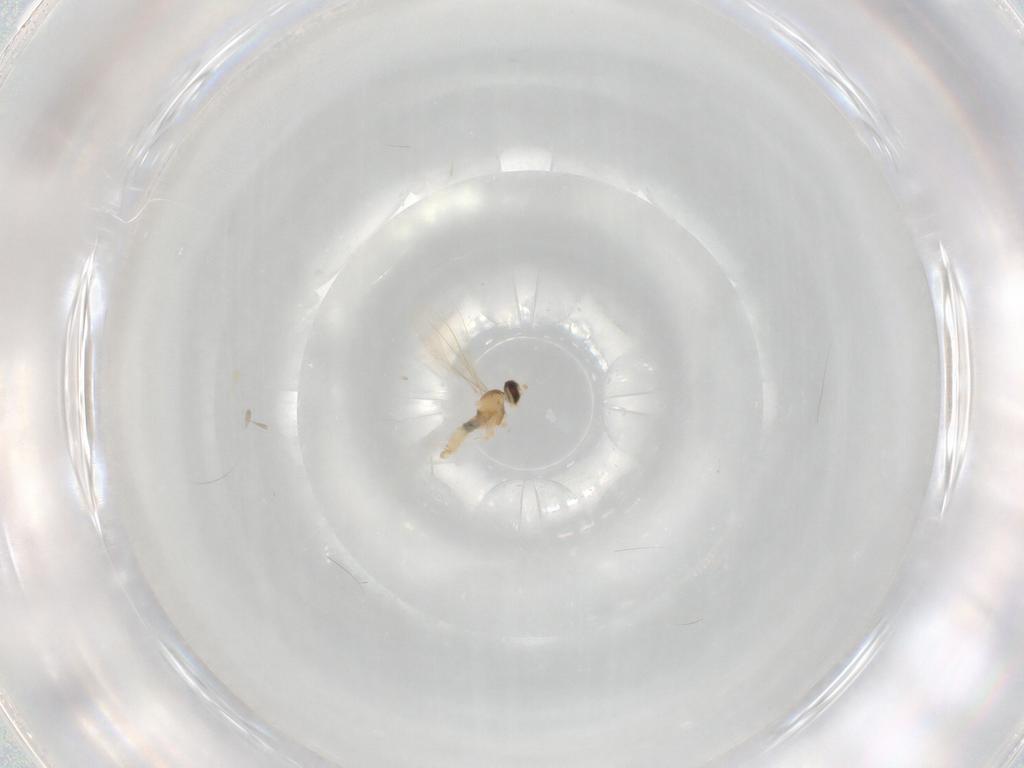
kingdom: Animalia
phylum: Arthropoda
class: Insecta
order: Diptera
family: Cecidomyiidae
